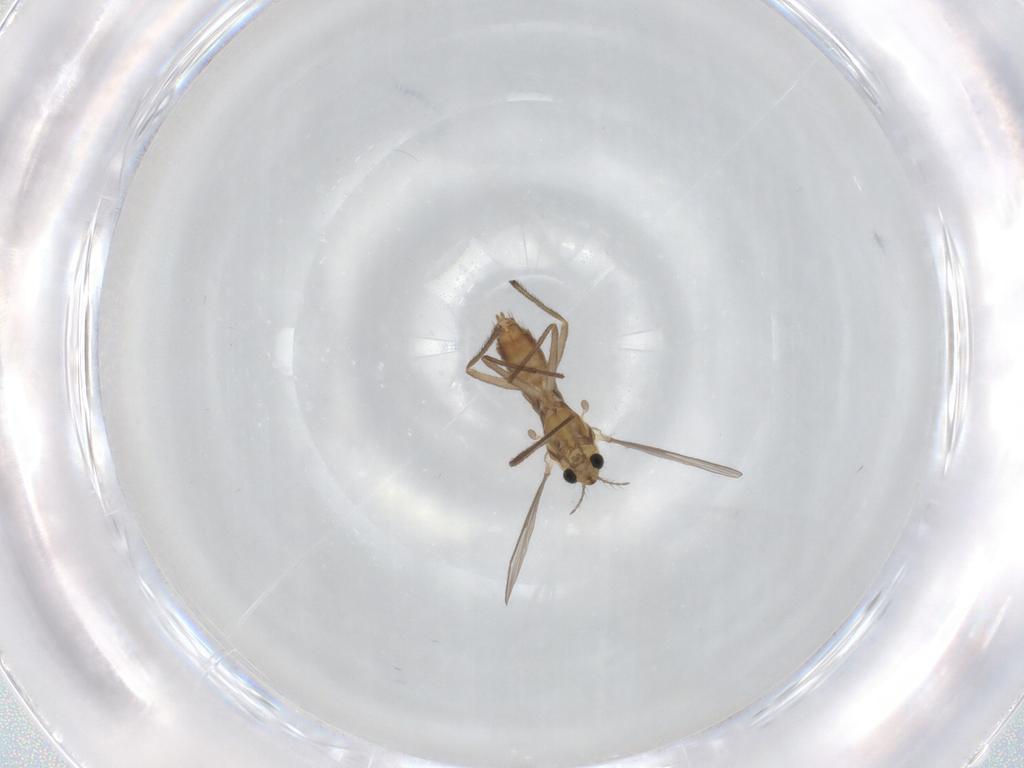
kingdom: Animalia
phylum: Arthropoda
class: Insecta
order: Diptera
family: Chironomidae
